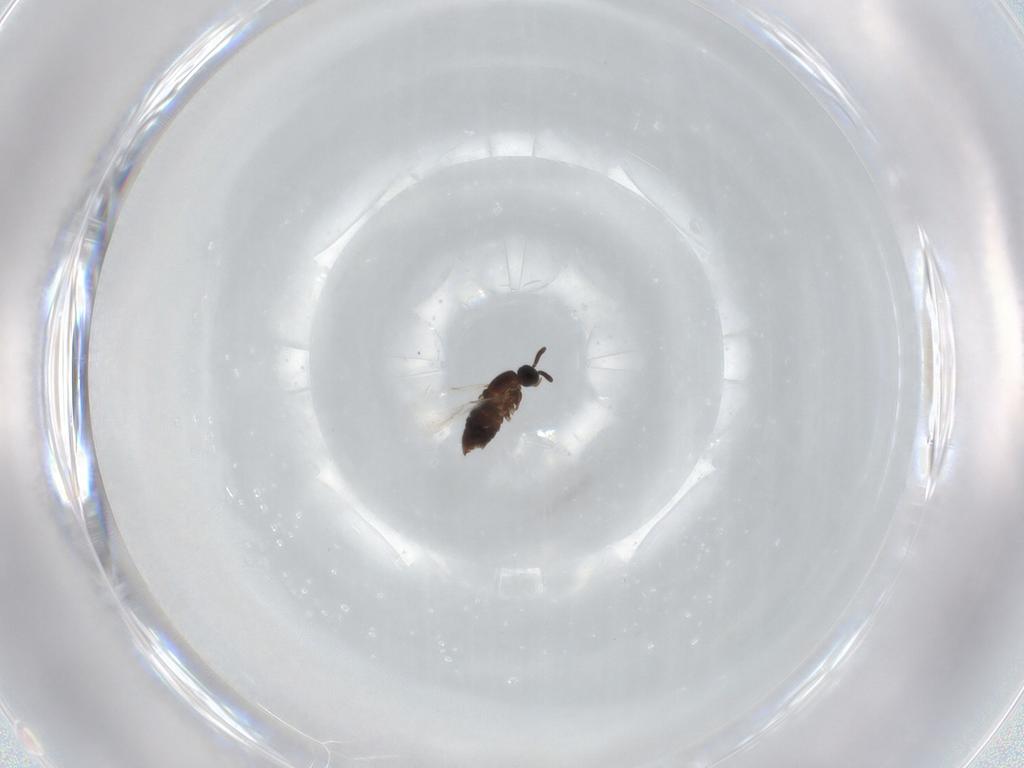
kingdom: Animalia
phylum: Arthropoda
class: Insecta
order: Diptera
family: Scatopsidae
